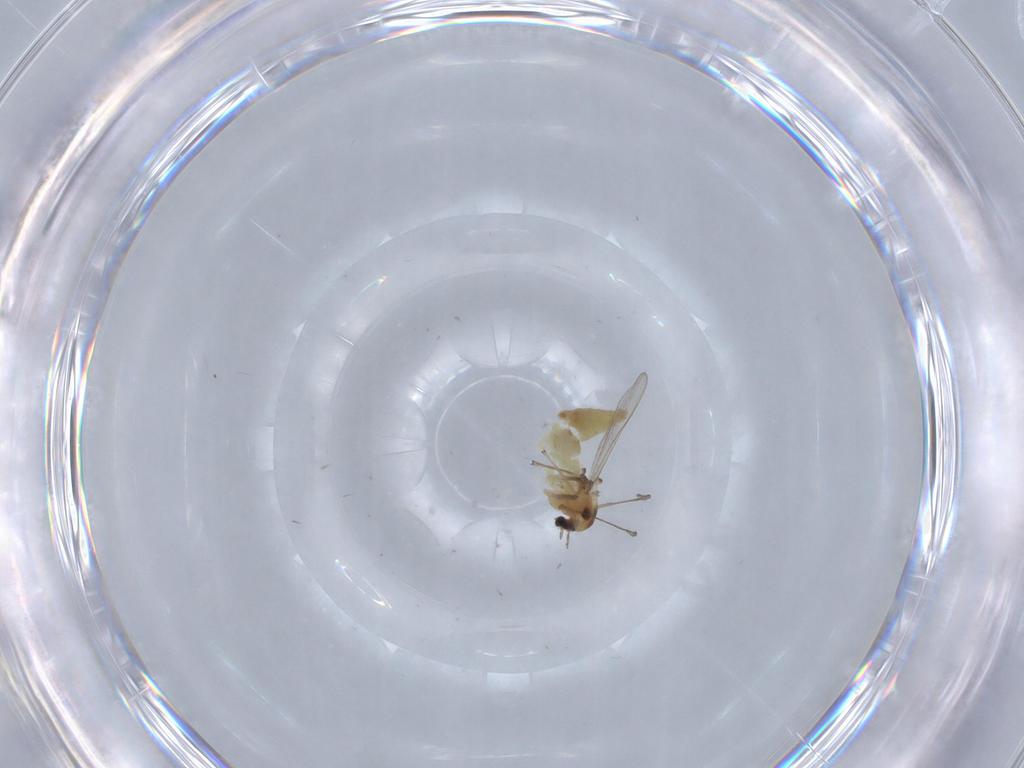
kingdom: Animalia
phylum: Arthropoda
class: Insecta
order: Diptera
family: Chironomidae
